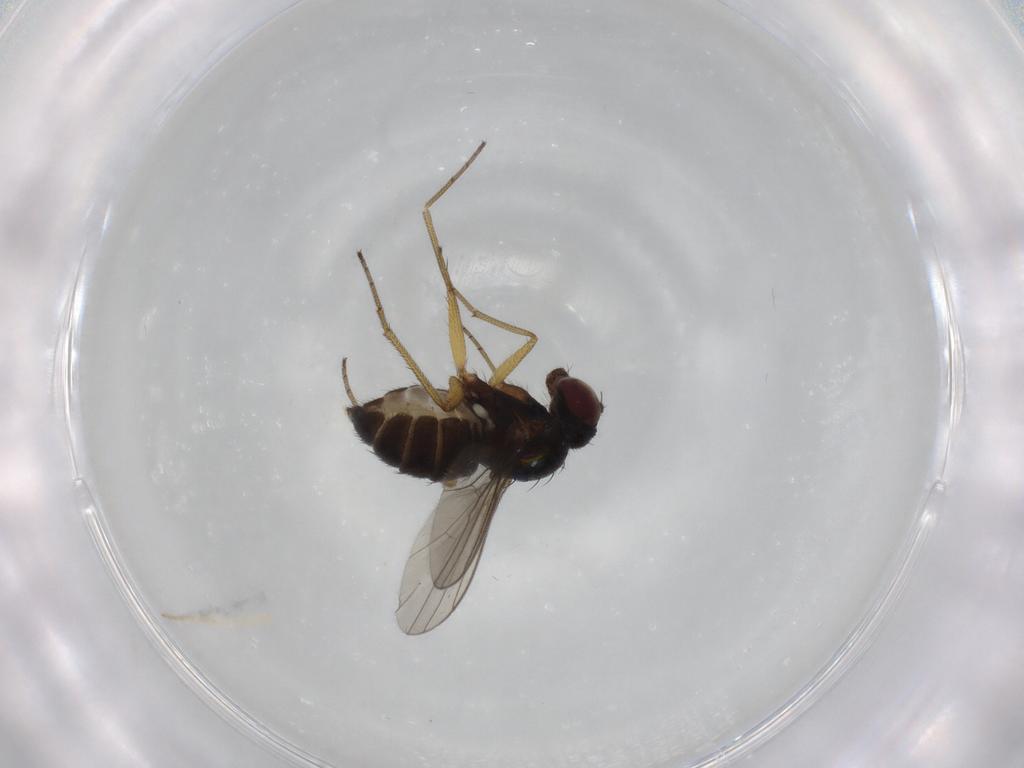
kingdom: Animalia
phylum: Arthropoda
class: Insecta
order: Diptera
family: Dolichopodidae
